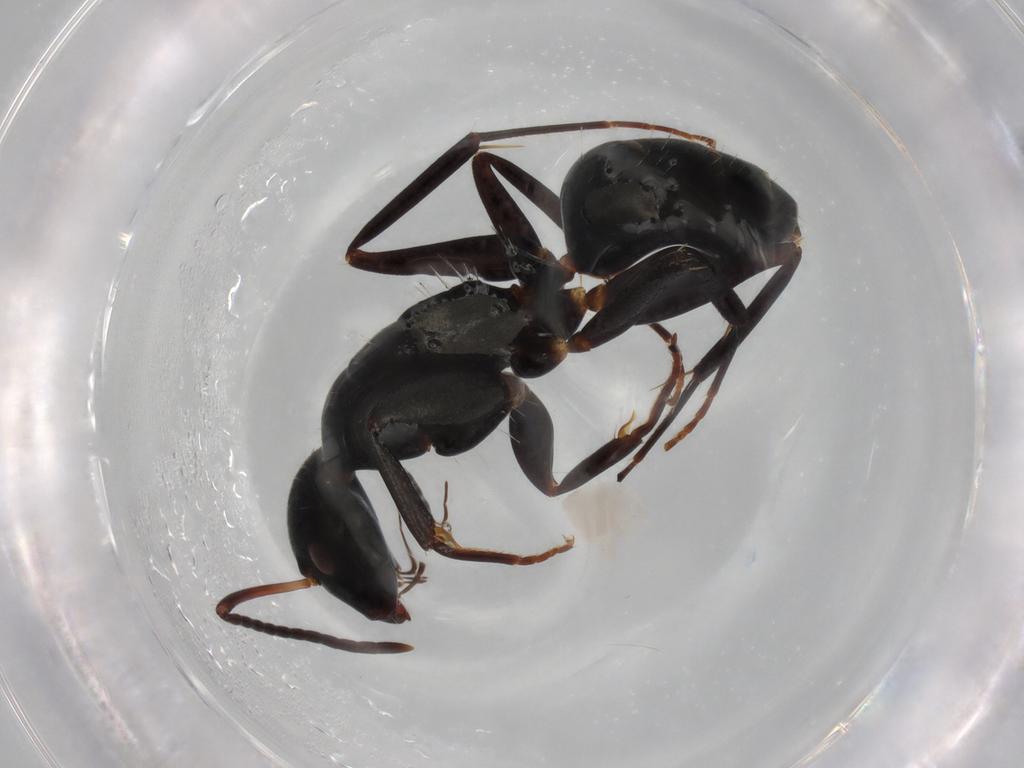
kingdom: Animalia
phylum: Arthropoda
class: Insecta
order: Hymenoptera
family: Formicidae
